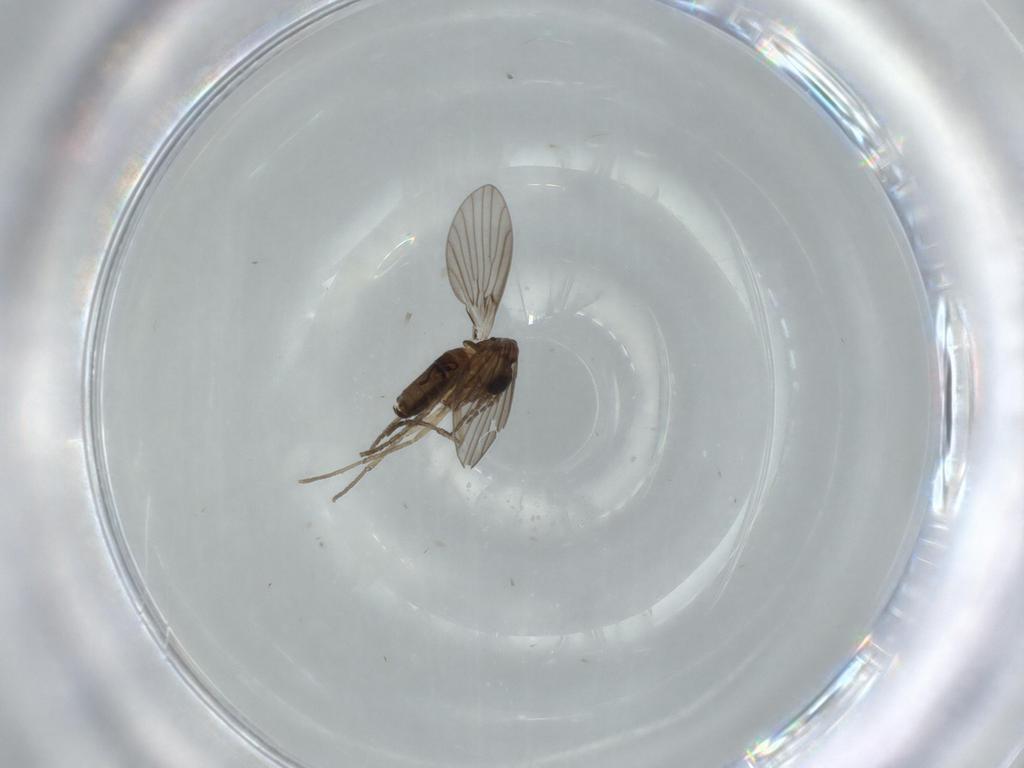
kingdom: Animalia
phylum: Arthropoda
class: Insecta
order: Diptera
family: Psychodidae
